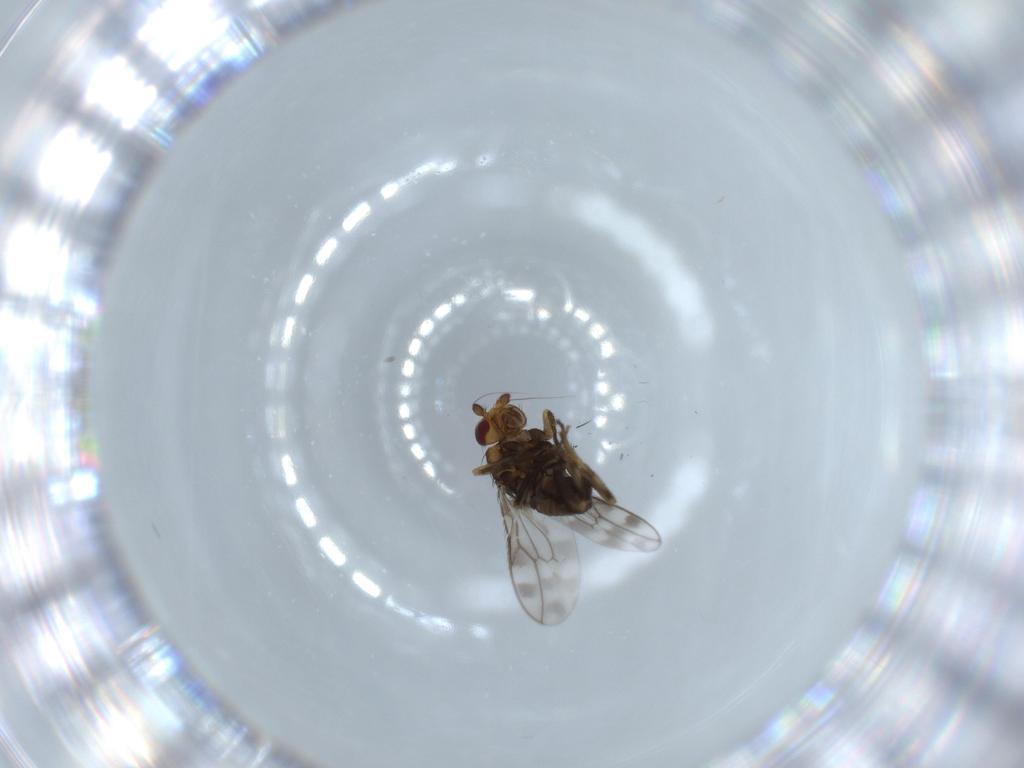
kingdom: Animalia
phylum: Arthropoda
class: Insecta
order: Diptera
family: Sphaeroceridae
